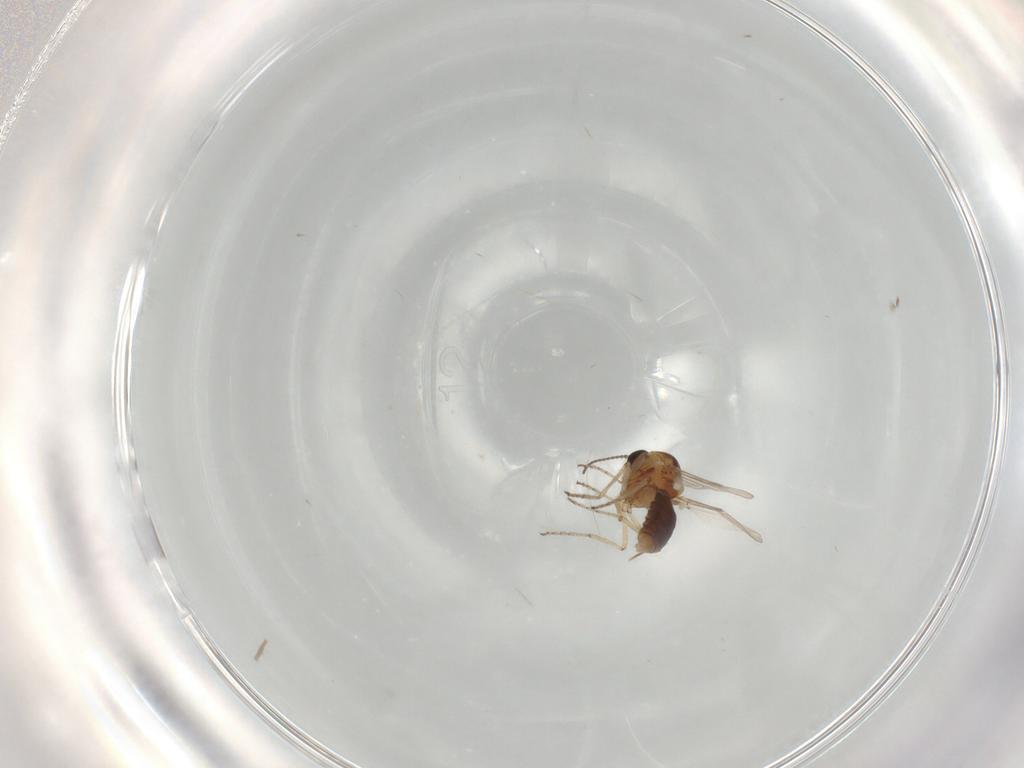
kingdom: Animalia
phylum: Arthropoda
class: Insecta
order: Diptera
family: Ceratopogonidae
